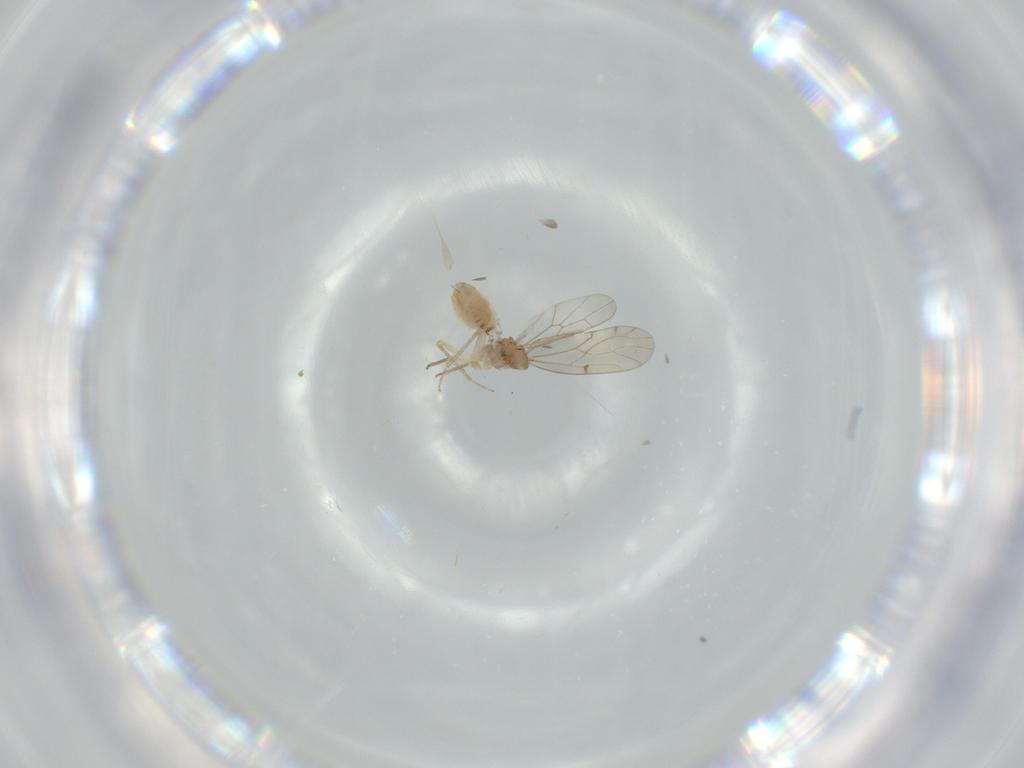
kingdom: Animalia
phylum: Arthropoda
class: Insecta
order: Psocodea
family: Ectopsocidae
